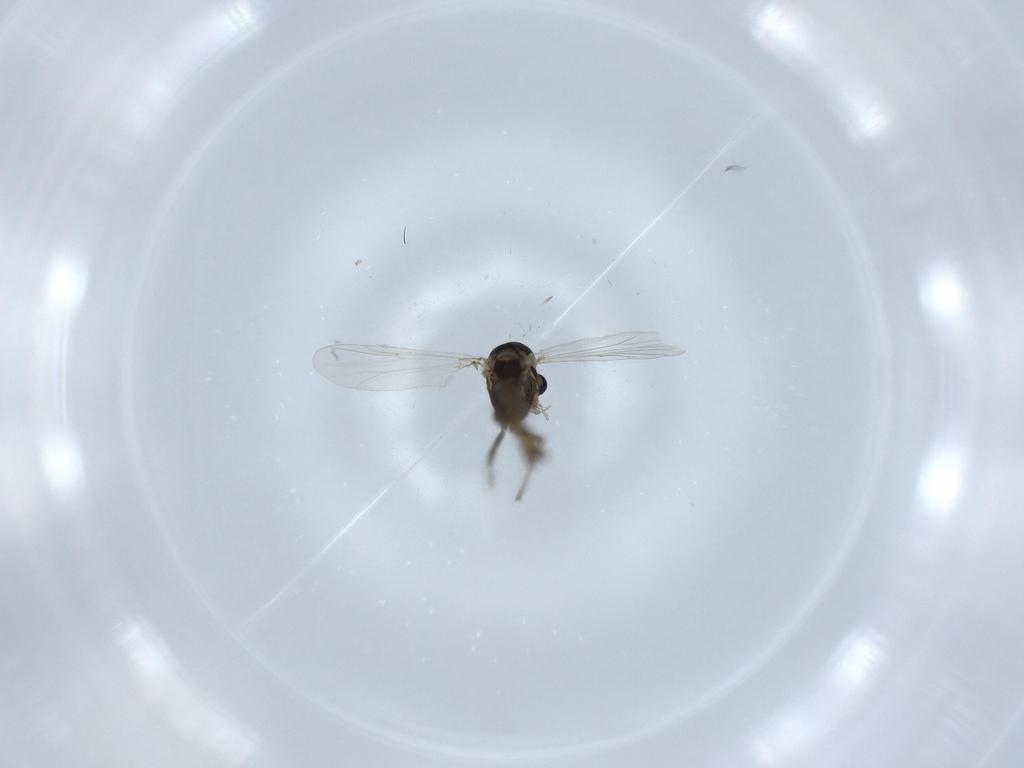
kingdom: Animalia
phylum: Arthropoda
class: Insecta
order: Diptera
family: Chironomidae
